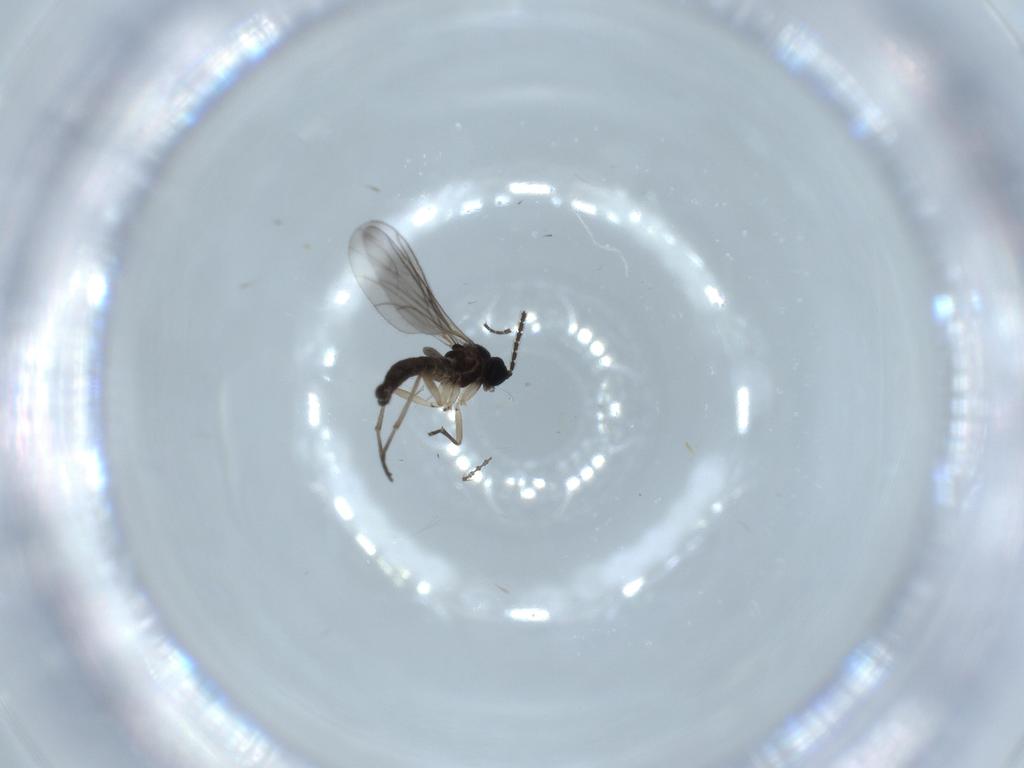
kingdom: Animalia
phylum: Arthropoda
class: Insecta
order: Diptera
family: Sciaridae
